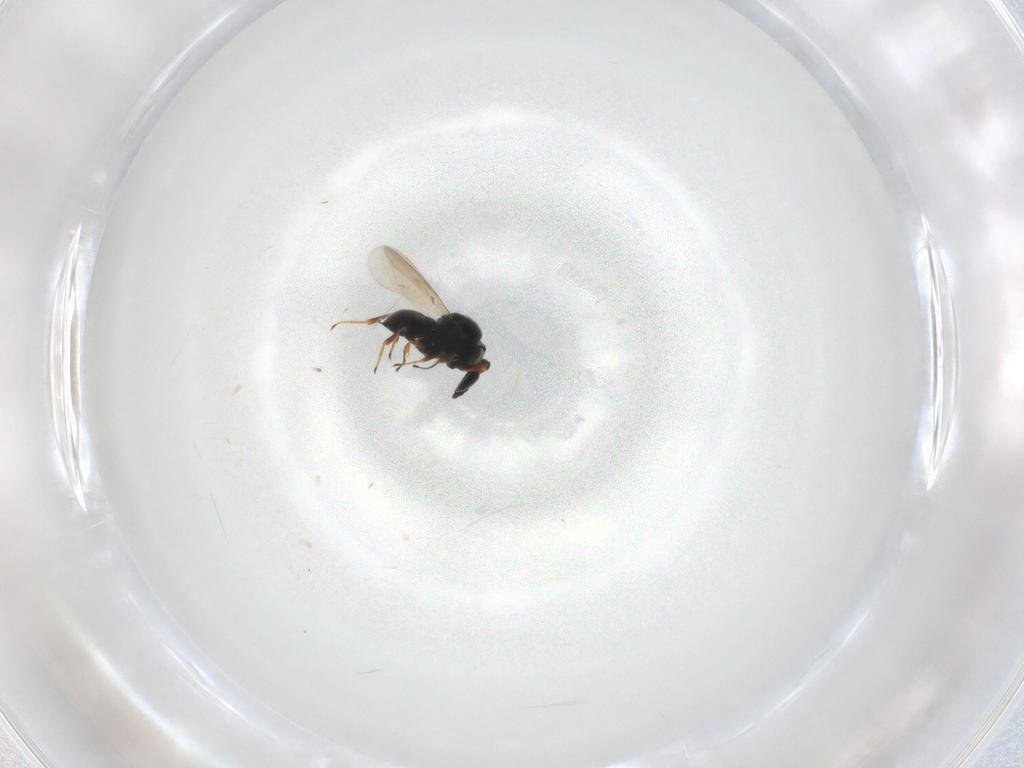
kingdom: Animalia
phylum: Arthropoda
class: Insecta
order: Hymenoptera
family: Scelionidae
